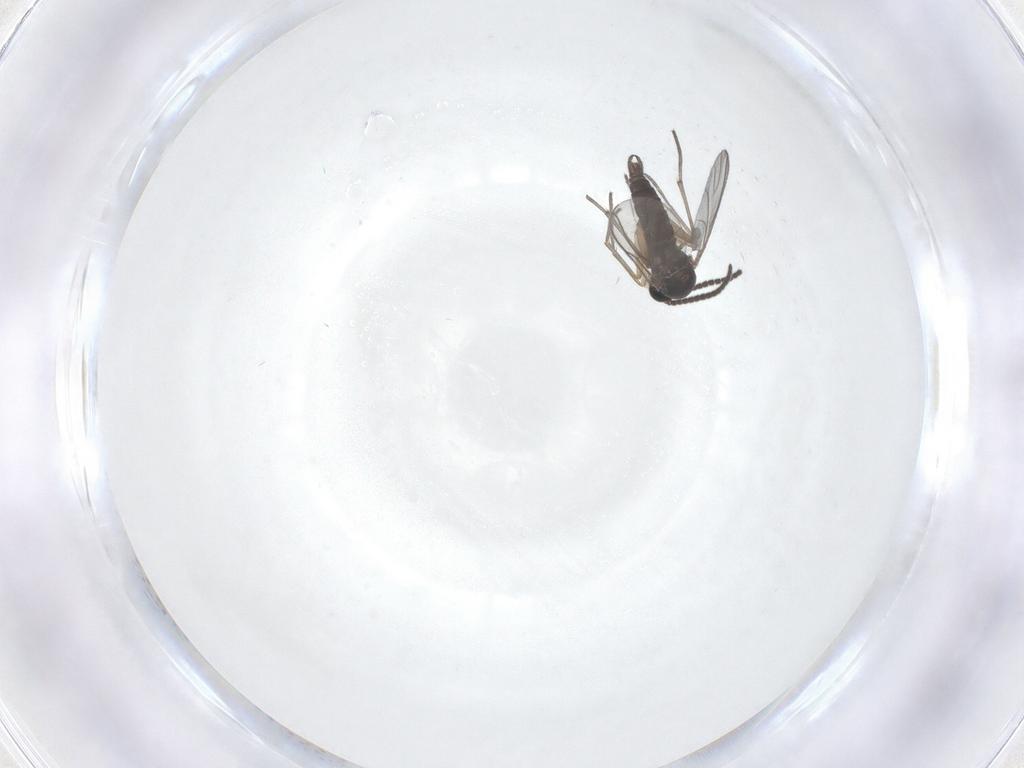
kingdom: Animalia
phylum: Arthropoda
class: Insecta
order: Diptera
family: Sciaridae
